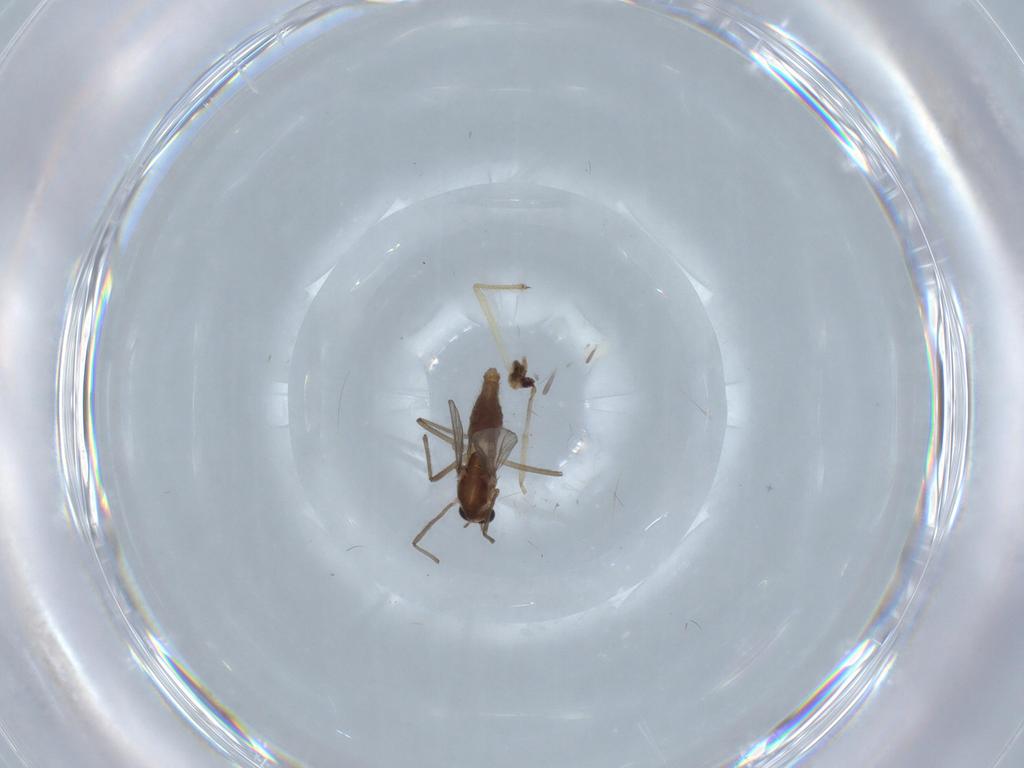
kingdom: Animalia
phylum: Arthropoda
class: Insecta
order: Diptera
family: Chironomidae
